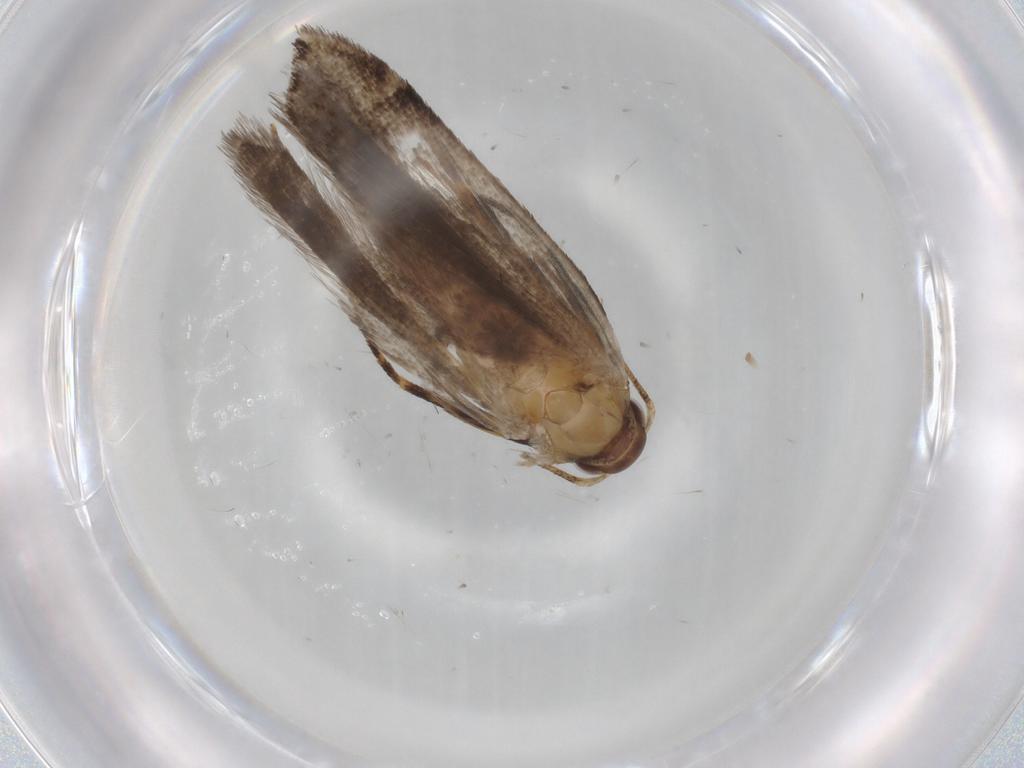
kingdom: Animalia
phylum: Arthropoda
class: Insecta
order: Lepidoptera
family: Gelechiidae
